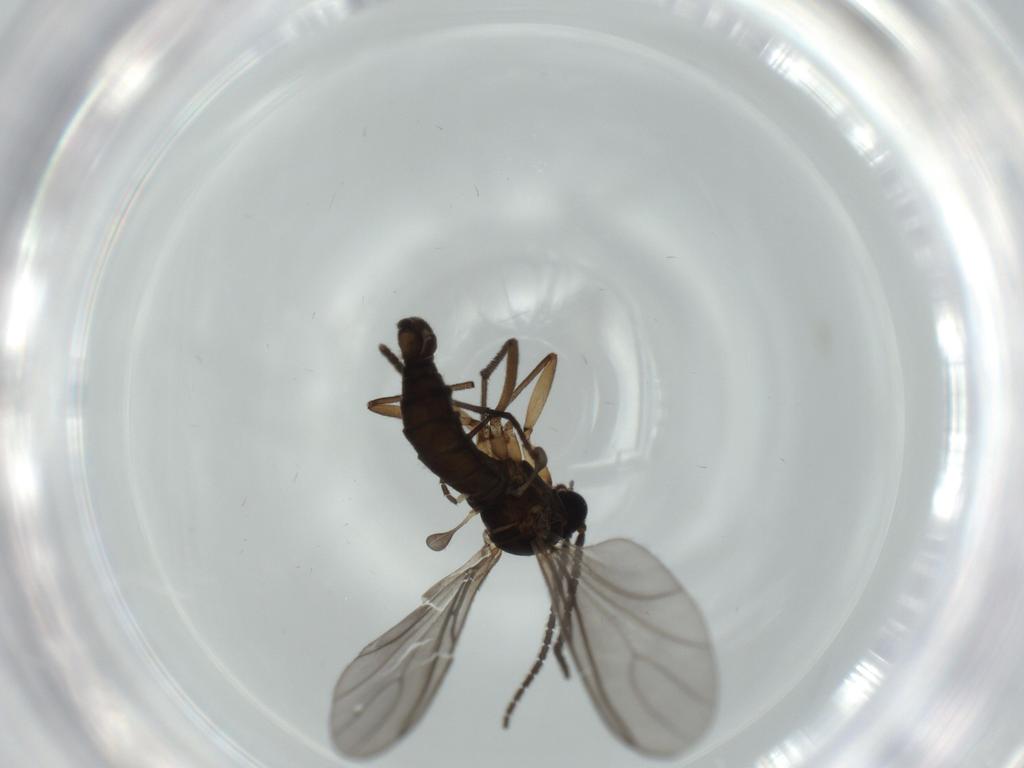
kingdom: Animalia
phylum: Arthropoda
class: Insecta
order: Diptera
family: Sciaridae
